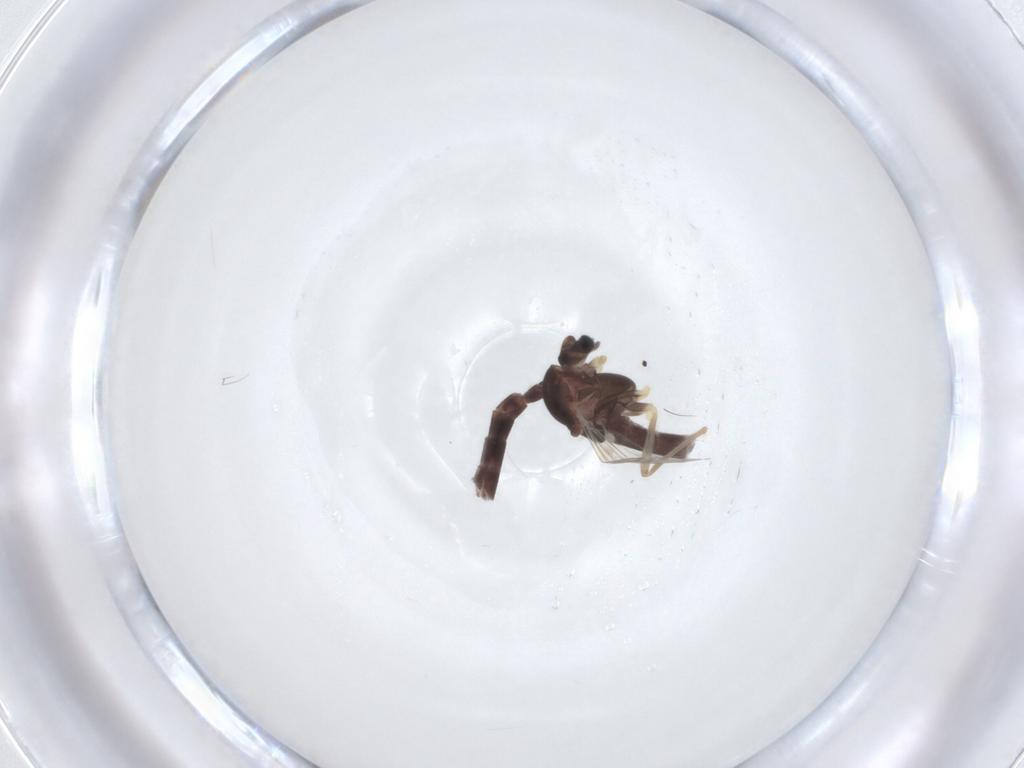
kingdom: Animalia
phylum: Arthropoda
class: Insecta
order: Diptera
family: Chironomidae
